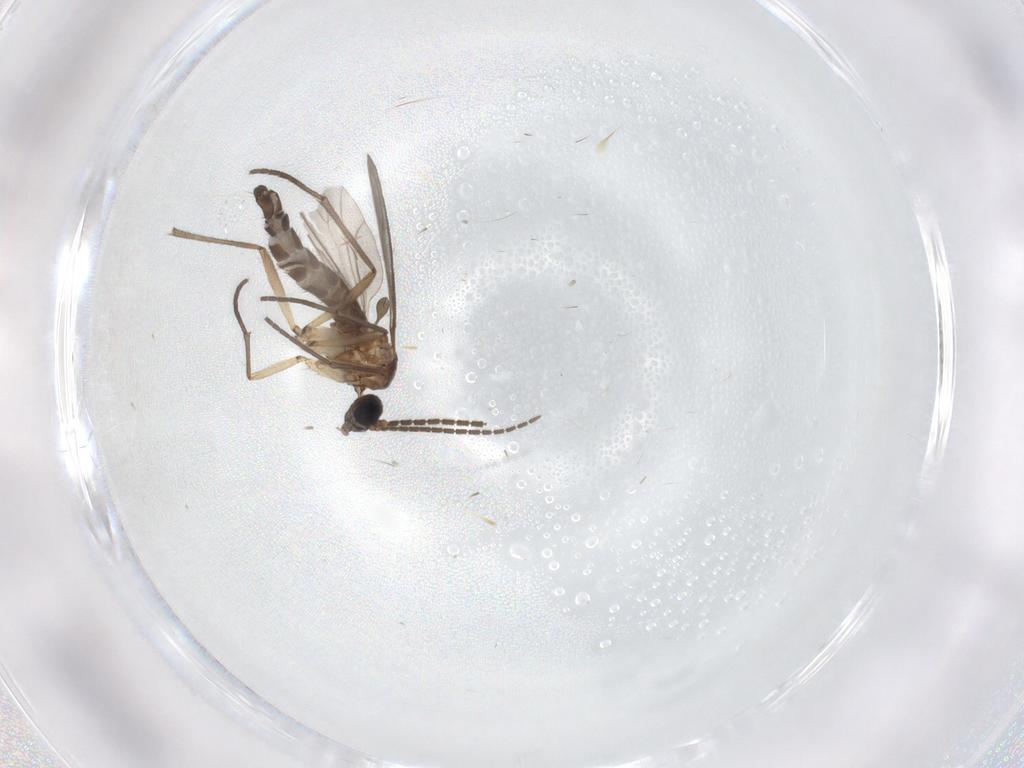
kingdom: Animalia
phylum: Arthropoda
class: Insecta
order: Diptera
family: Sciaridae
